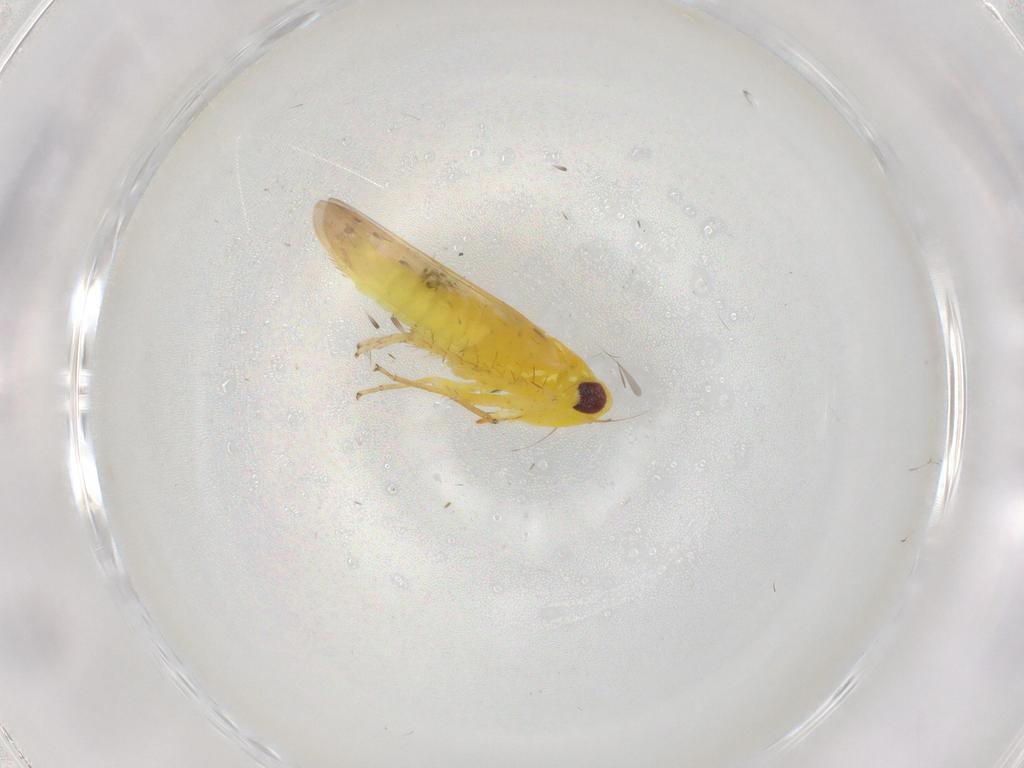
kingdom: Animalia
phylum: Arthropoda
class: Insecta
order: Hemiptera
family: Cicadellidae
